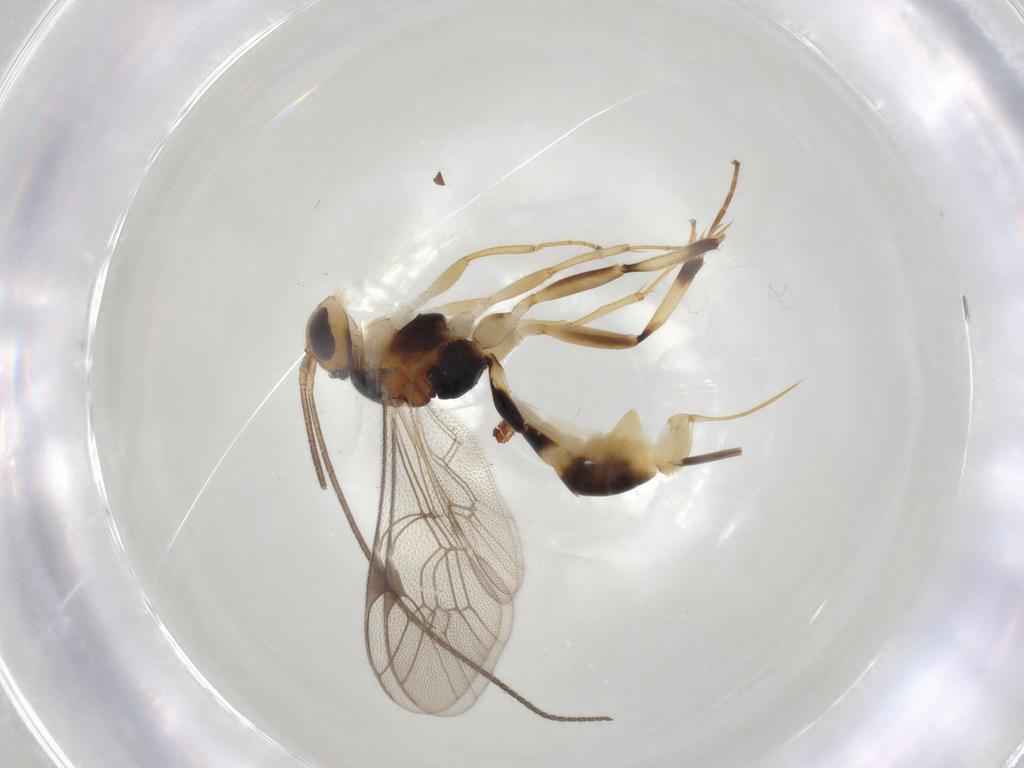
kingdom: Animalia
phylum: Arthropoda
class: Insecta
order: Hymenoptera
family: Ichneumonidae
